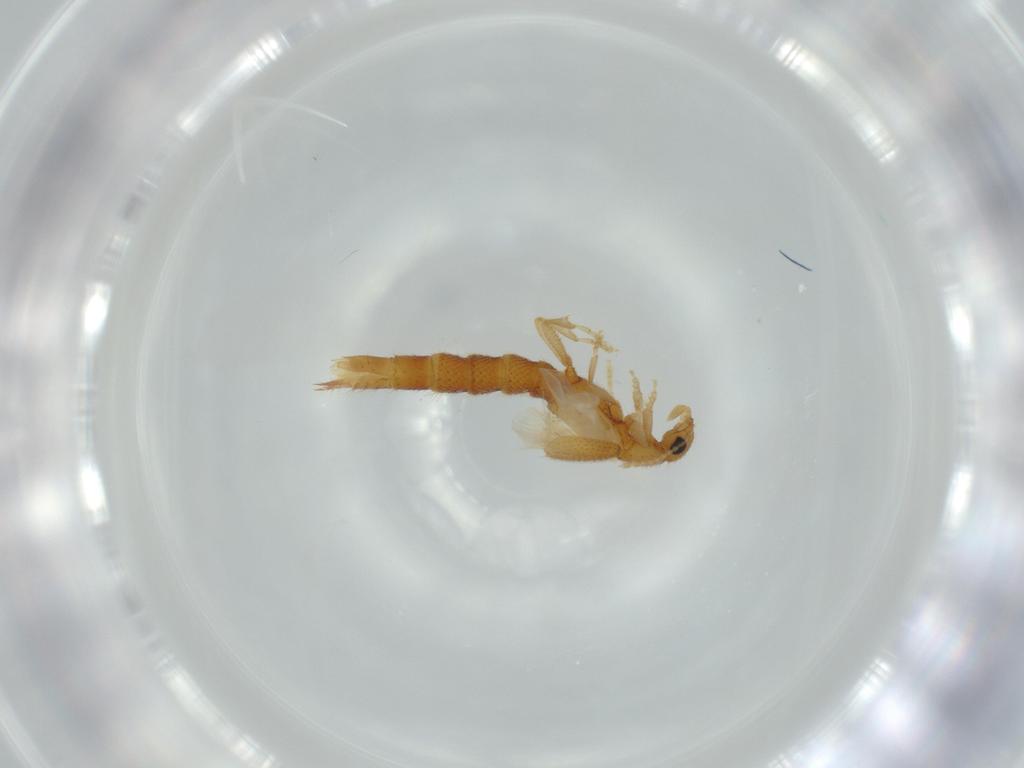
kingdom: Animalia
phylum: Arthropoda
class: Insecta
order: Coleoptera
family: Staphylinidae
